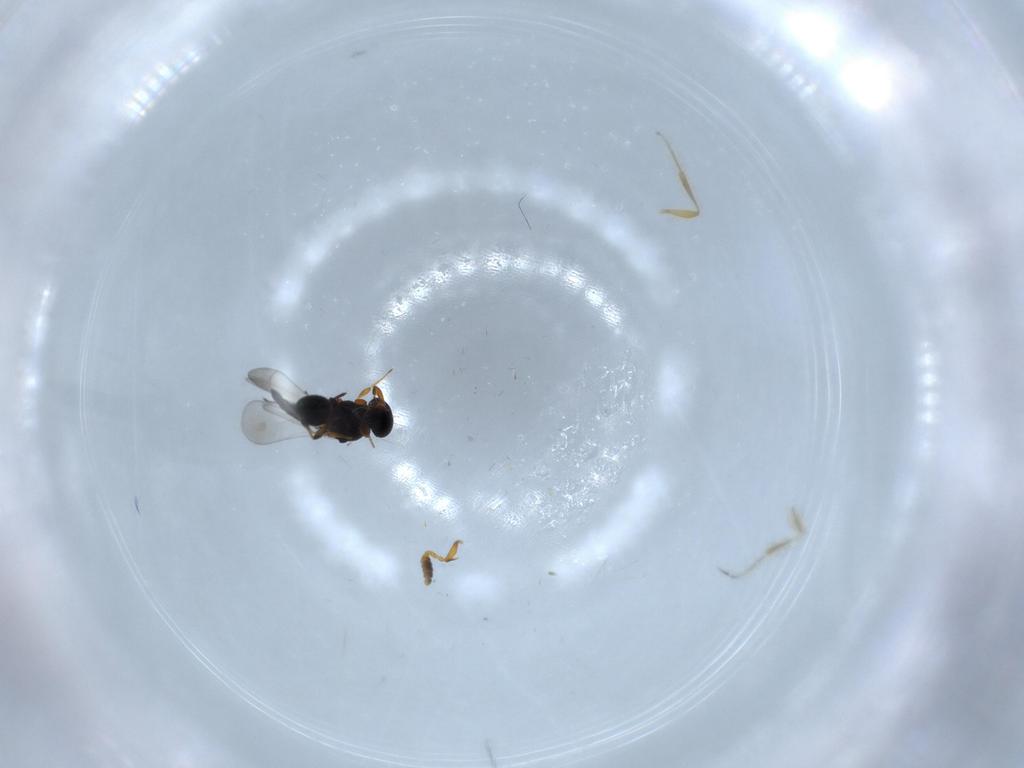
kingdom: Animalia
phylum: Arthropoda
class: Insecta
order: Hymenoptera
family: Platygastridae
